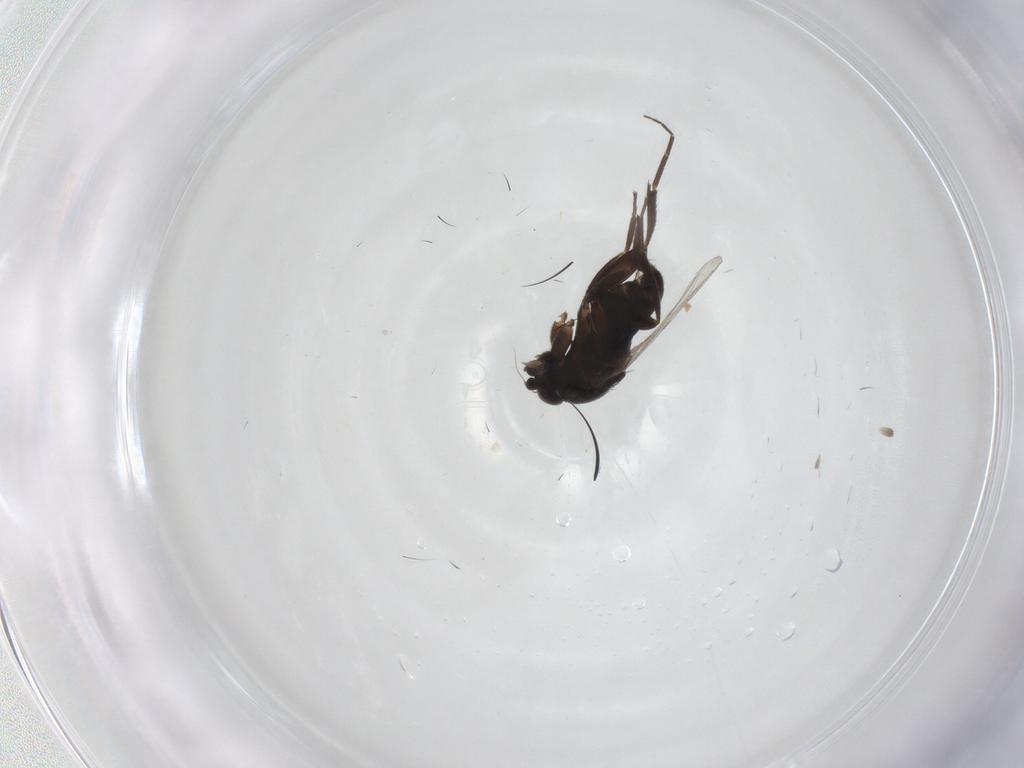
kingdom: Animalia
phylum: Arthropoda
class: Insecta
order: Diptera
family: Phoridae
